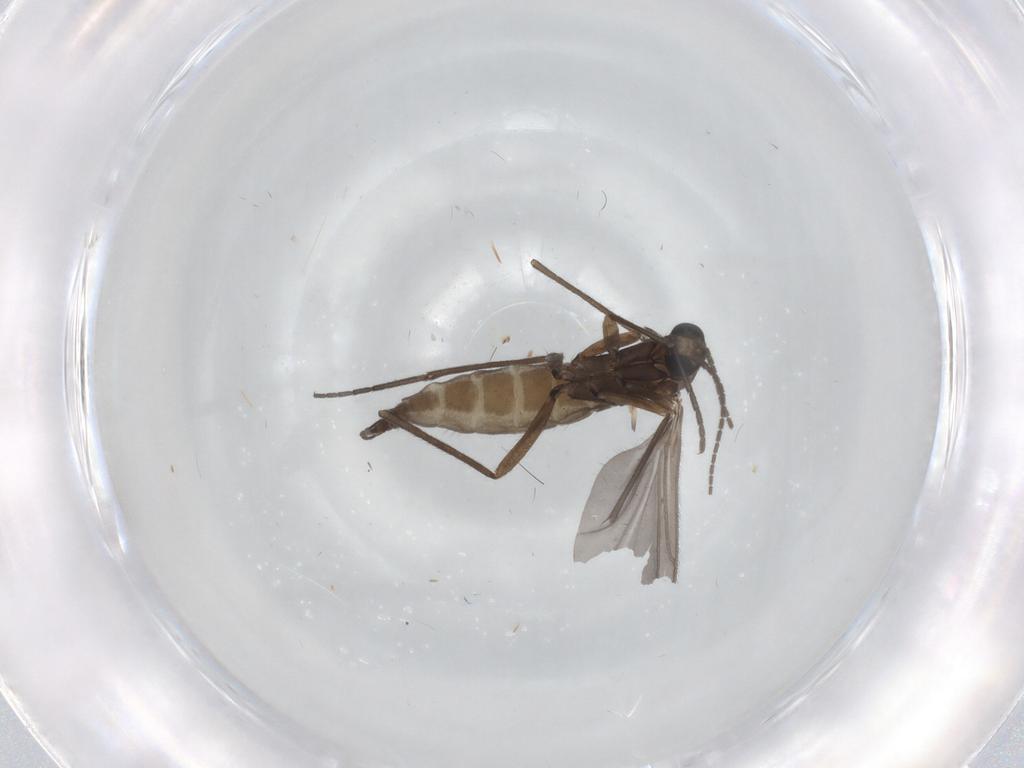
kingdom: Animalia
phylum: Arthropoda
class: Insecta
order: Diptera
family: Sciaridae
